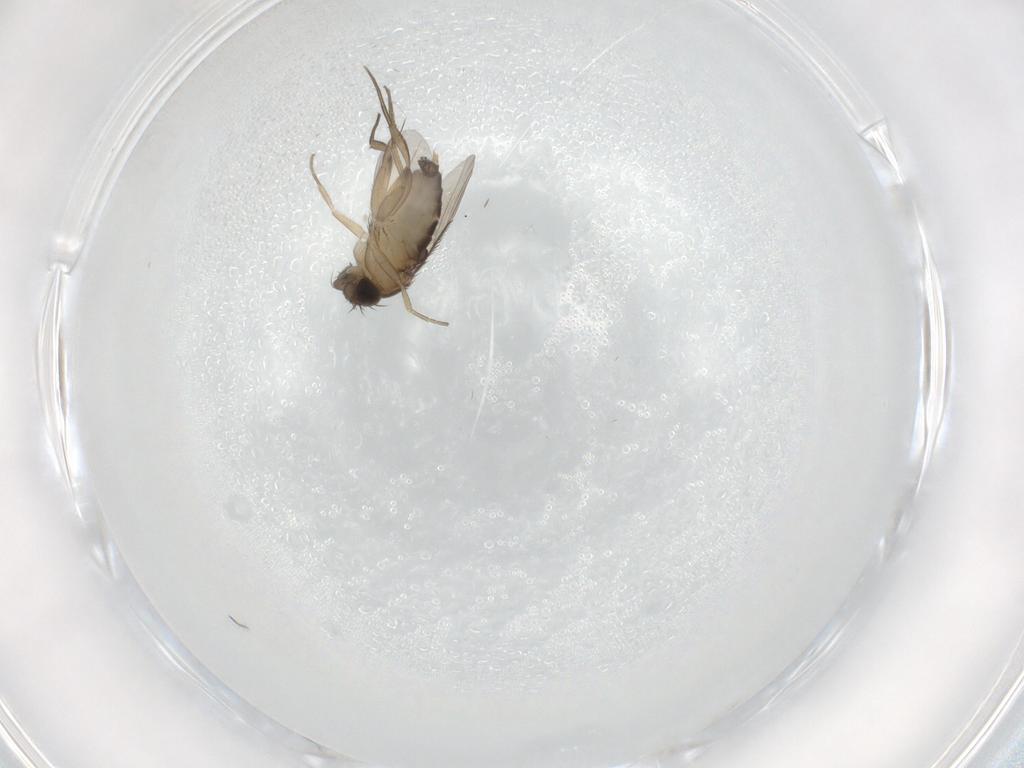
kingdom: Animalia
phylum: Arthropoda
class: Insecta
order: Diptera
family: Phoridae
